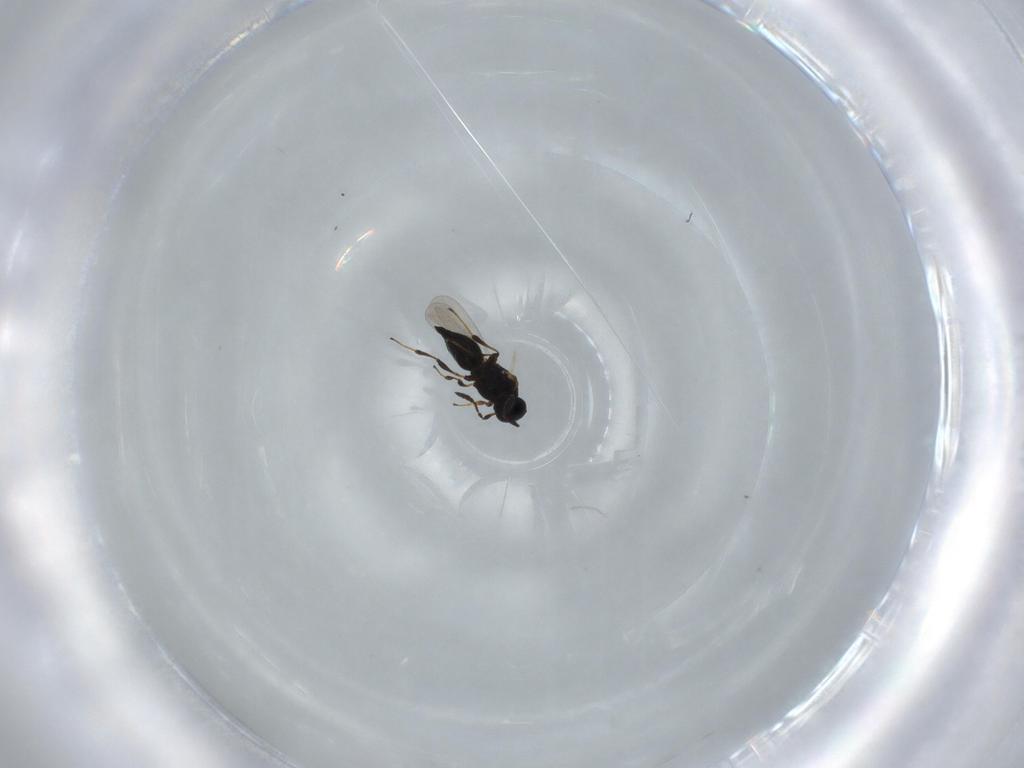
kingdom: Animalia
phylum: Arthropoda
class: Insecta
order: Hymenoptera
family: Platygastridae
